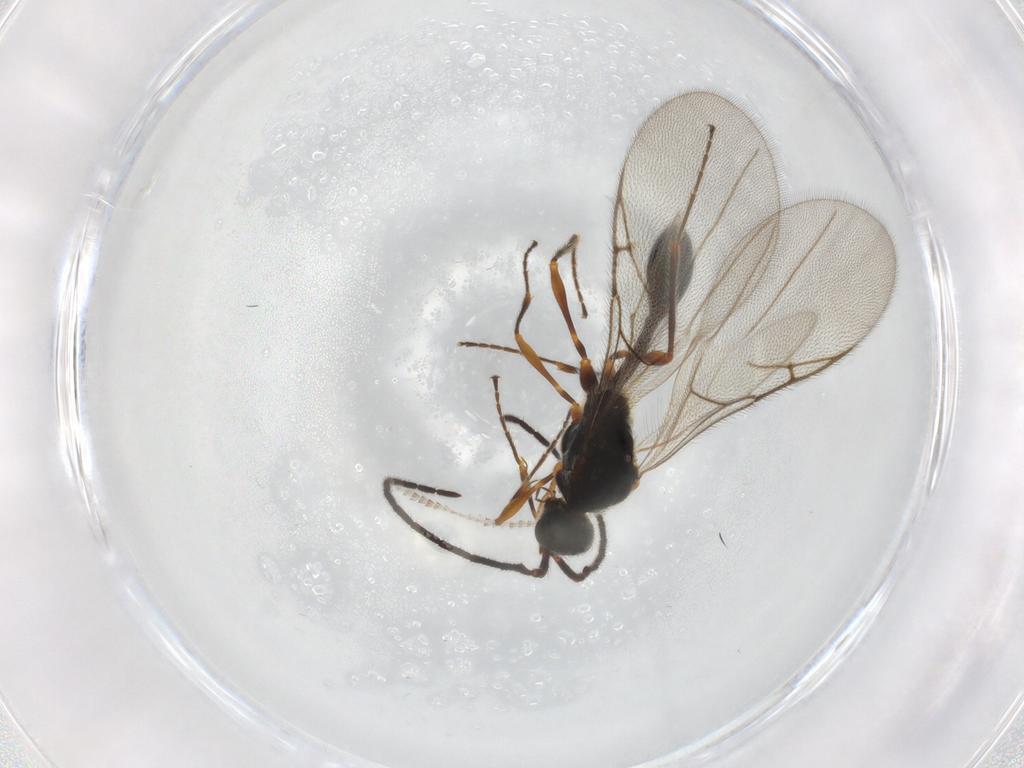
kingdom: Animalia
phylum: Arthropoda
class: Insecta
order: Hymenoptera
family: Diapriidae
